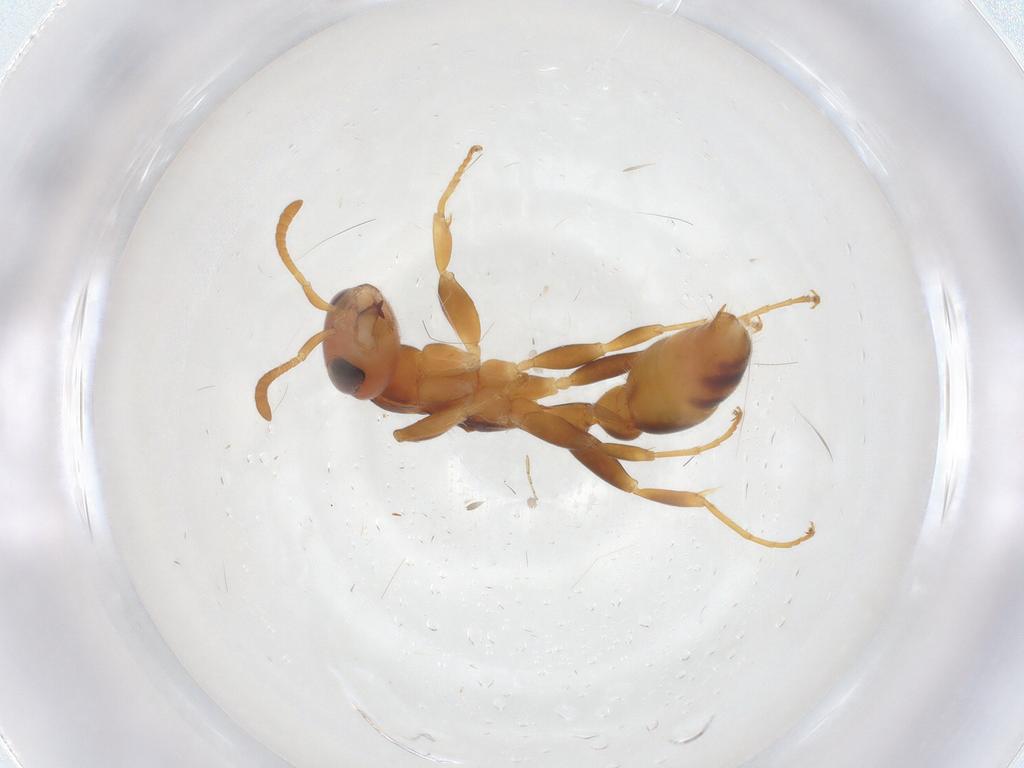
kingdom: Animalia
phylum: Arthropoda
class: Insecta
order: Hymenoptera
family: Formicidae
